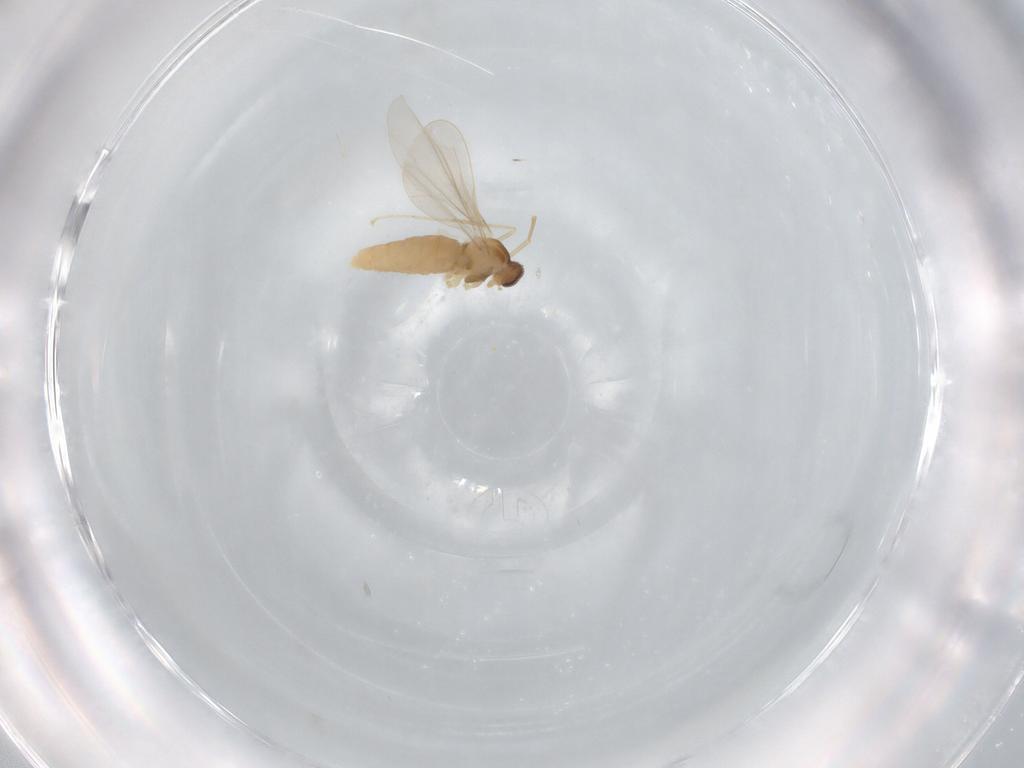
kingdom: Animalia
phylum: Arthropoda
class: Insecta
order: Diptera
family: Cecidomyiidae
